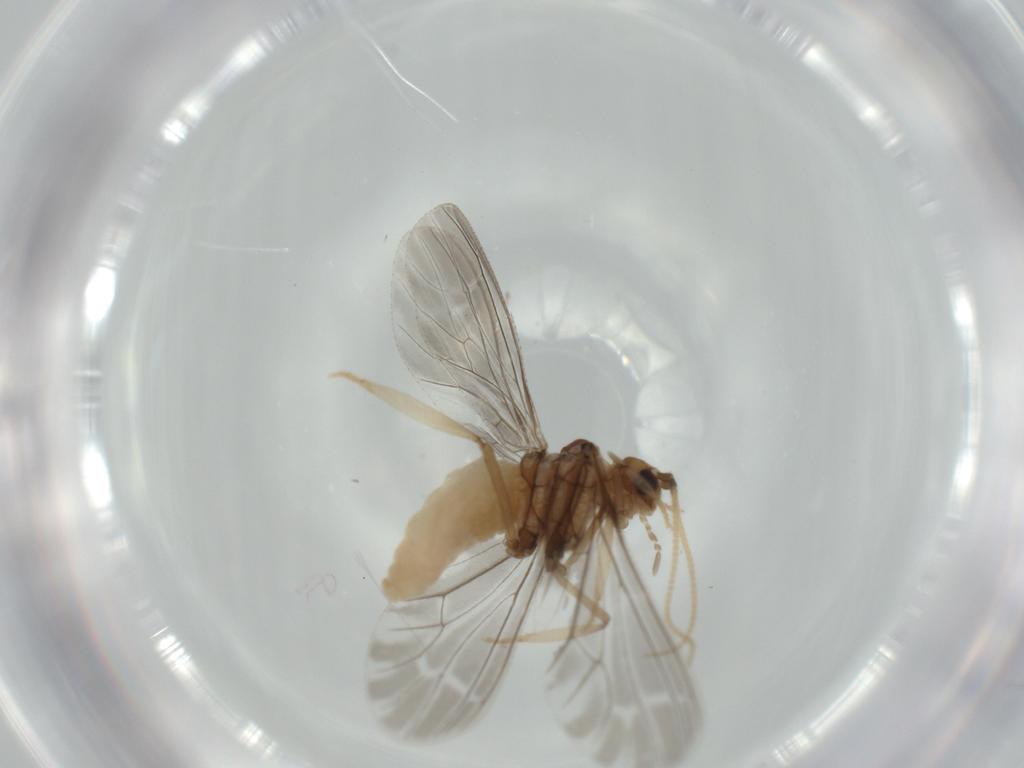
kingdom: Animalia
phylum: Arthropoda
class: Insecta
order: Neuroptera
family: Coniopterygidae
